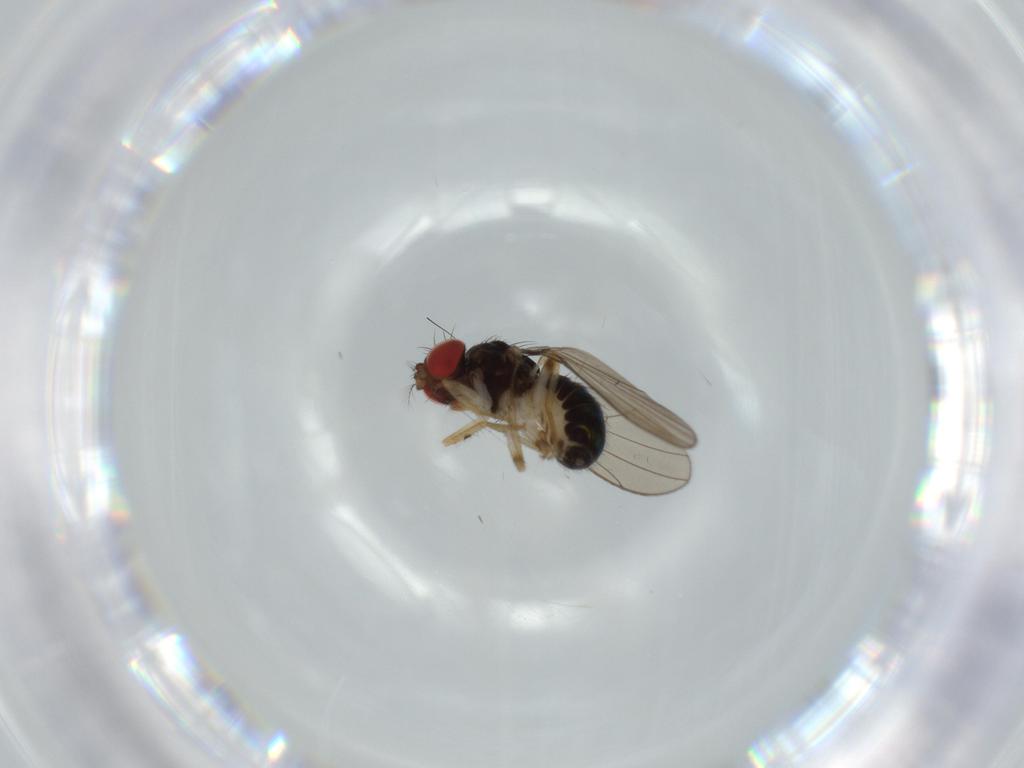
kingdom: Animalia
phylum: Arthropoda
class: Insecta
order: Diptera
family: Drosophilidae
